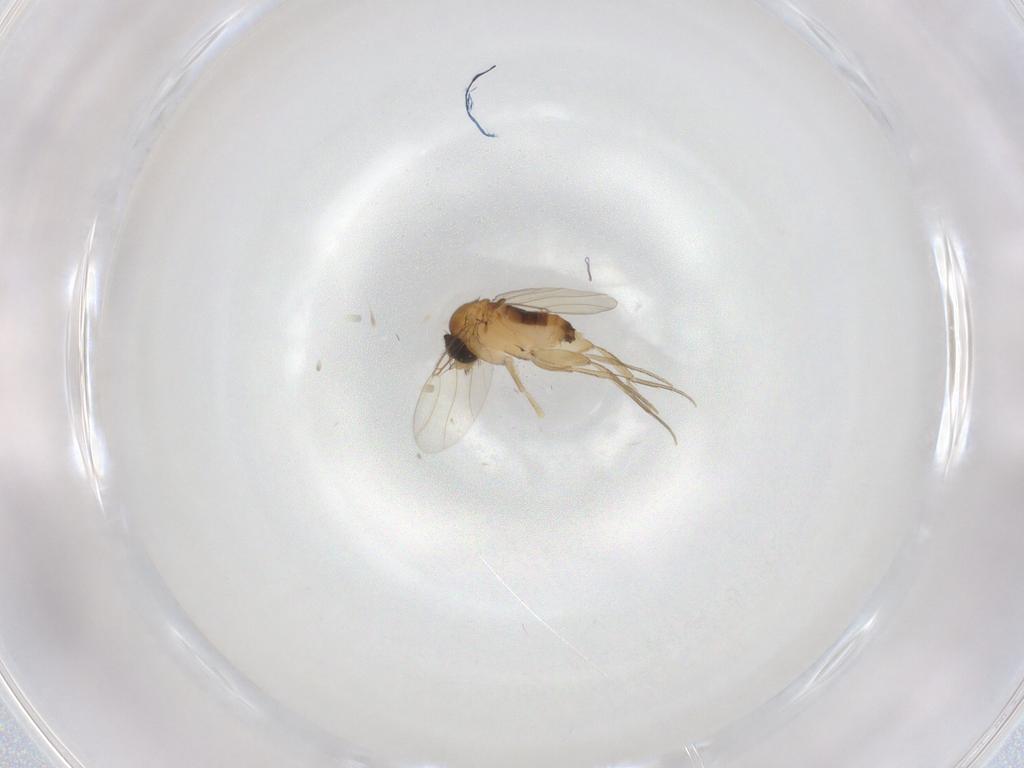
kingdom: Animalia
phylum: Arthropoda
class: Insecta
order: Diptera
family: Phoridae
